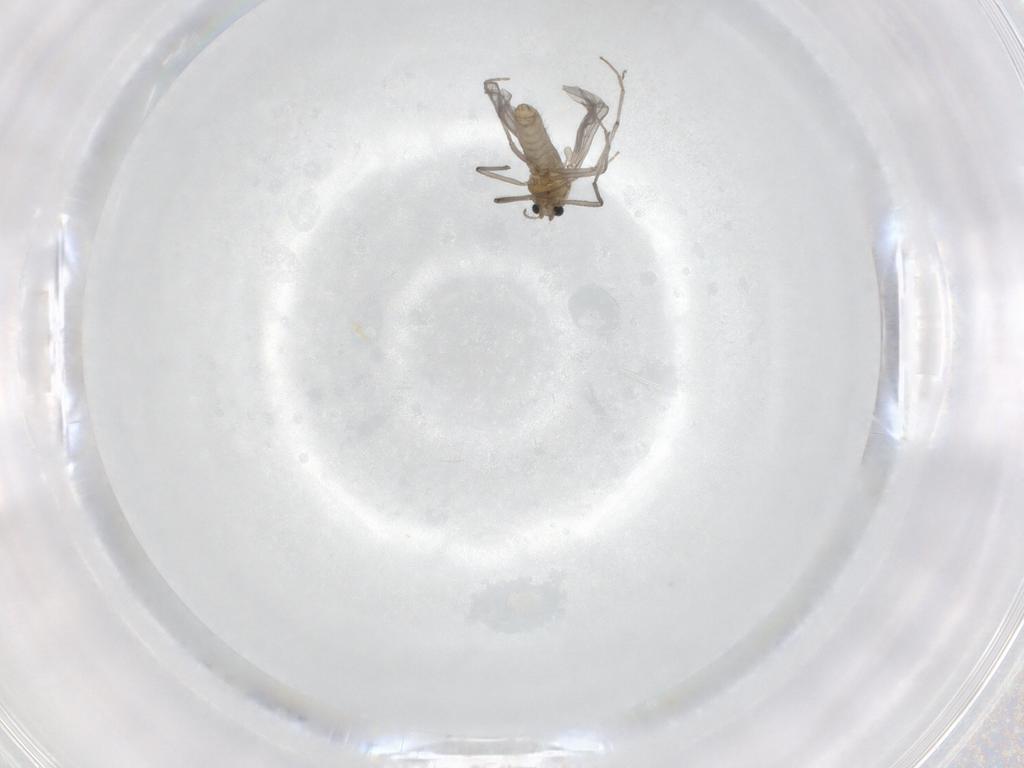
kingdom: Animalia
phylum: Arthropoda
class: Insecta
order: Diptera
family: Chironomidae
